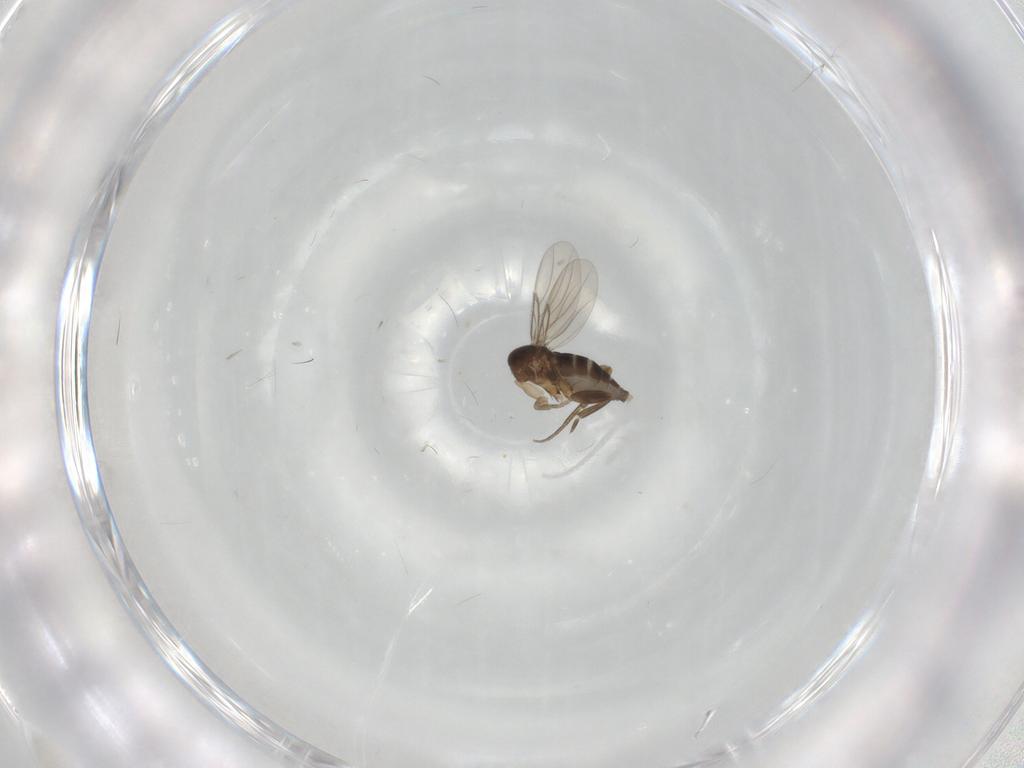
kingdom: Animalia
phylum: Arthropoda
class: Insecta
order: Diptera
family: Phoridae
